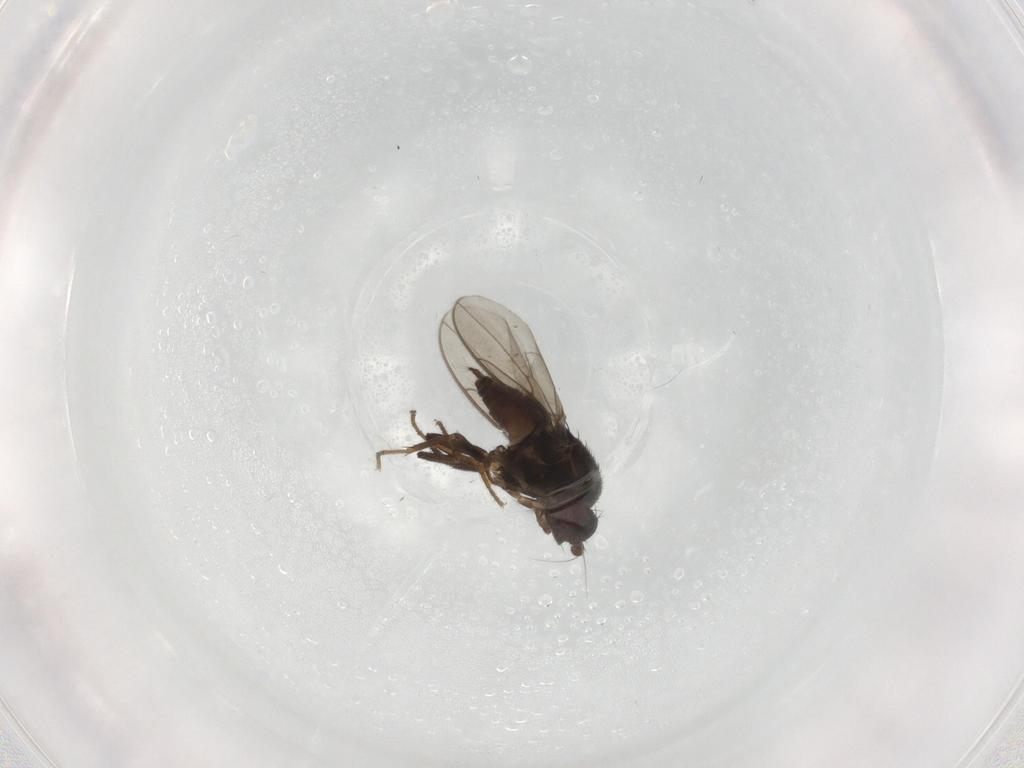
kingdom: Animalia
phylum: Arthropoda
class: Insecta
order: Diptera
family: Sphaeroceridae
